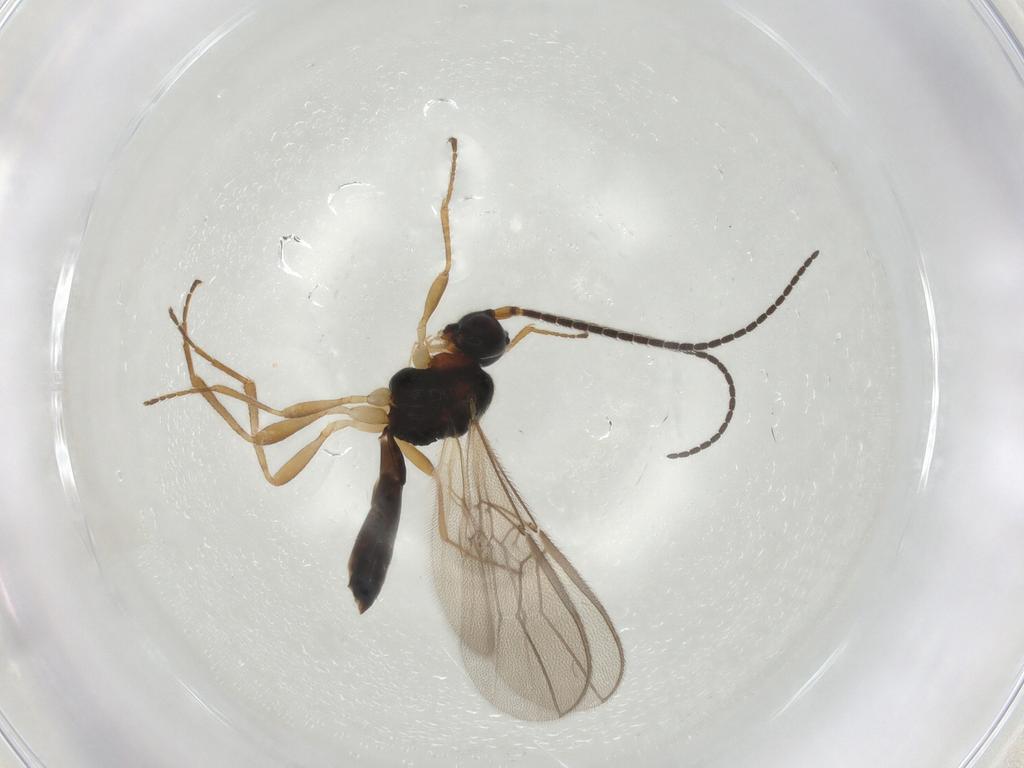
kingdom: Animalia
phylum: Arthropoda
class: Insecta
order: Hymenoptera
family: Braconidae
